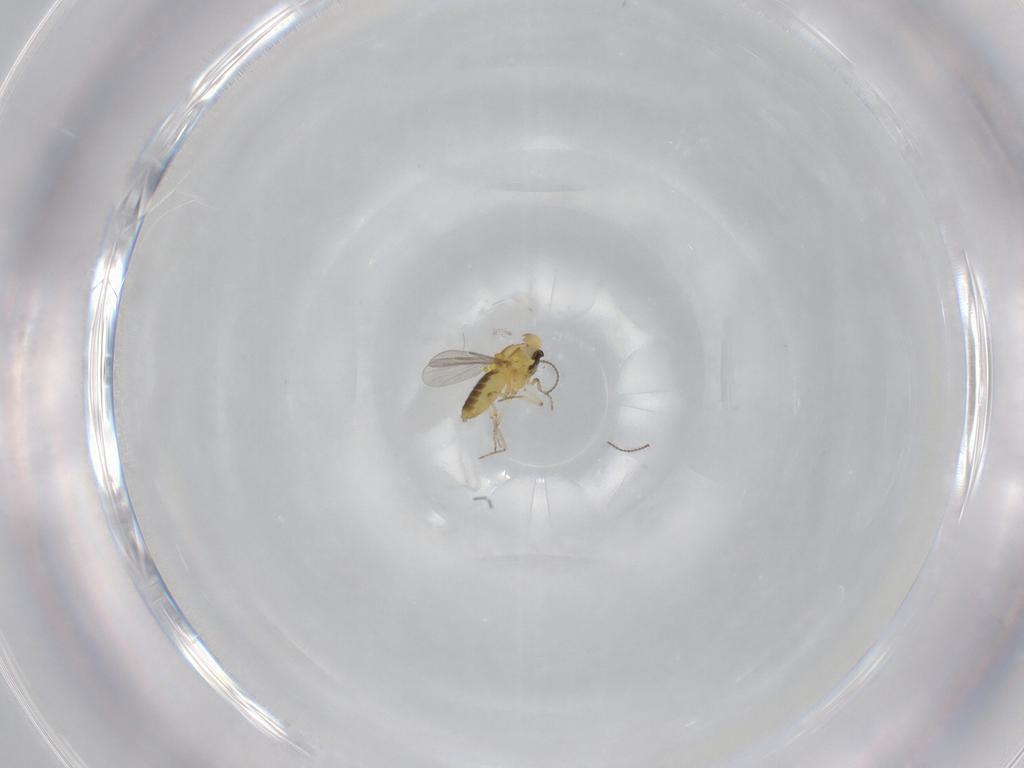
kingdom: Animalia
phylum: Arthropoda
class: Insecta
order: Diptera
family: Ceratopogonidae
